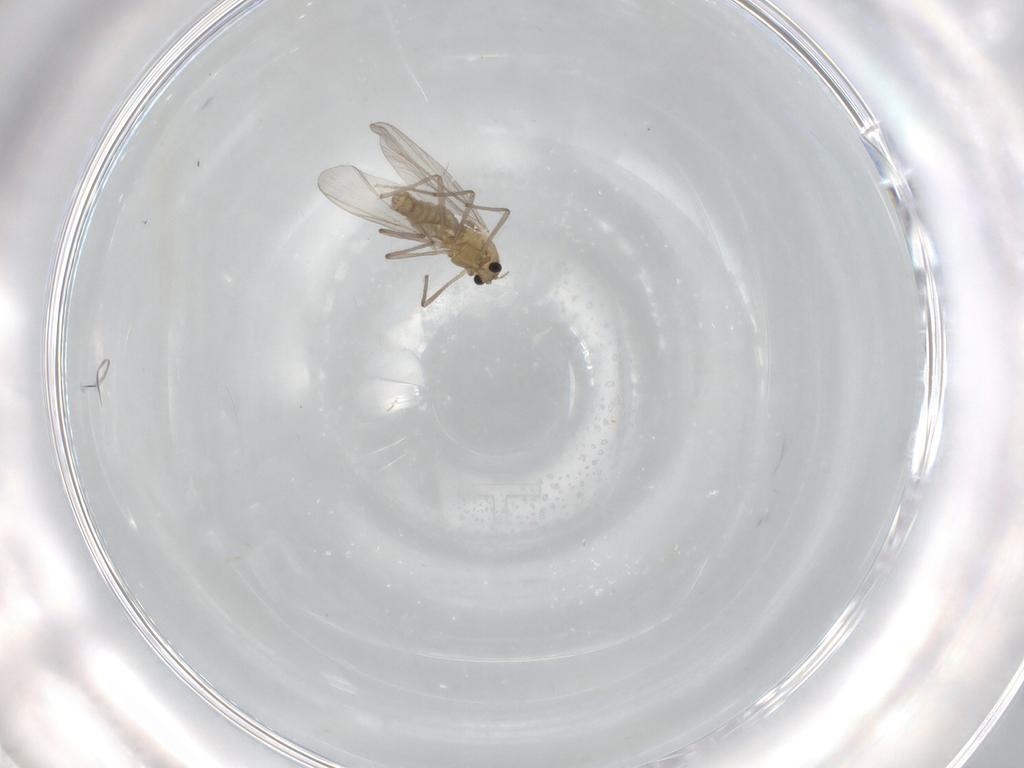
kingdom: Animalia
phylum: Arthropoda
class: Insecta
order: Diptera
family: Chironomidae
